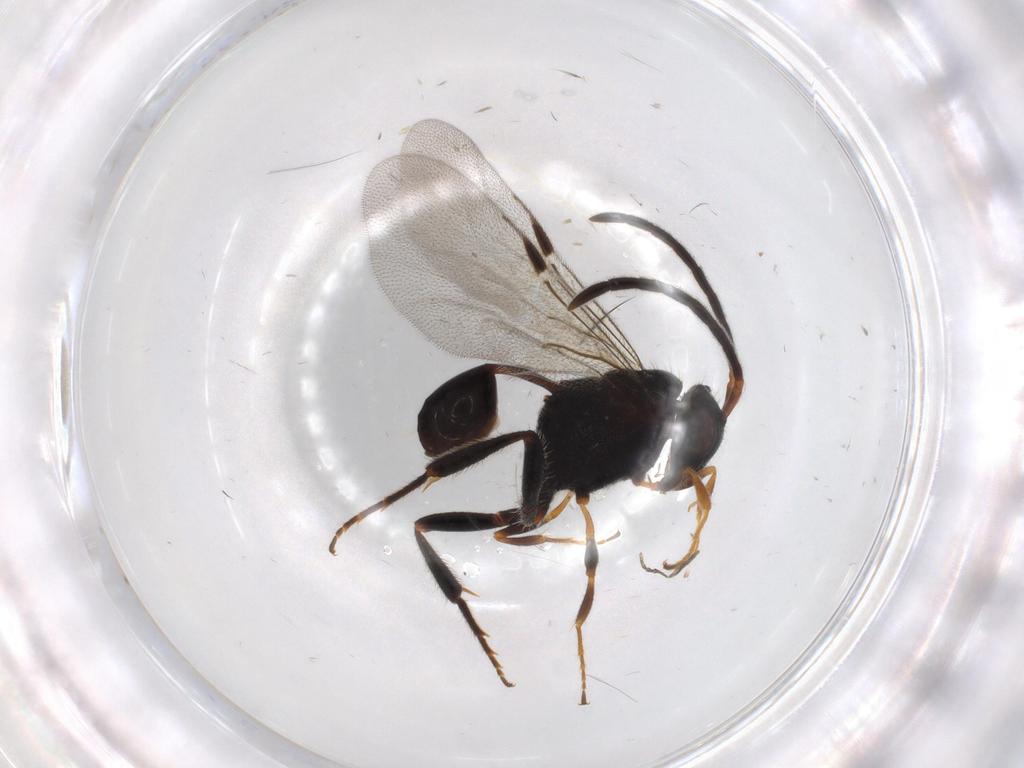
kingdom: Animalia
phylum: Arthropoda
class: Insecta
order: Hymenoptera
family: Evaniidae
